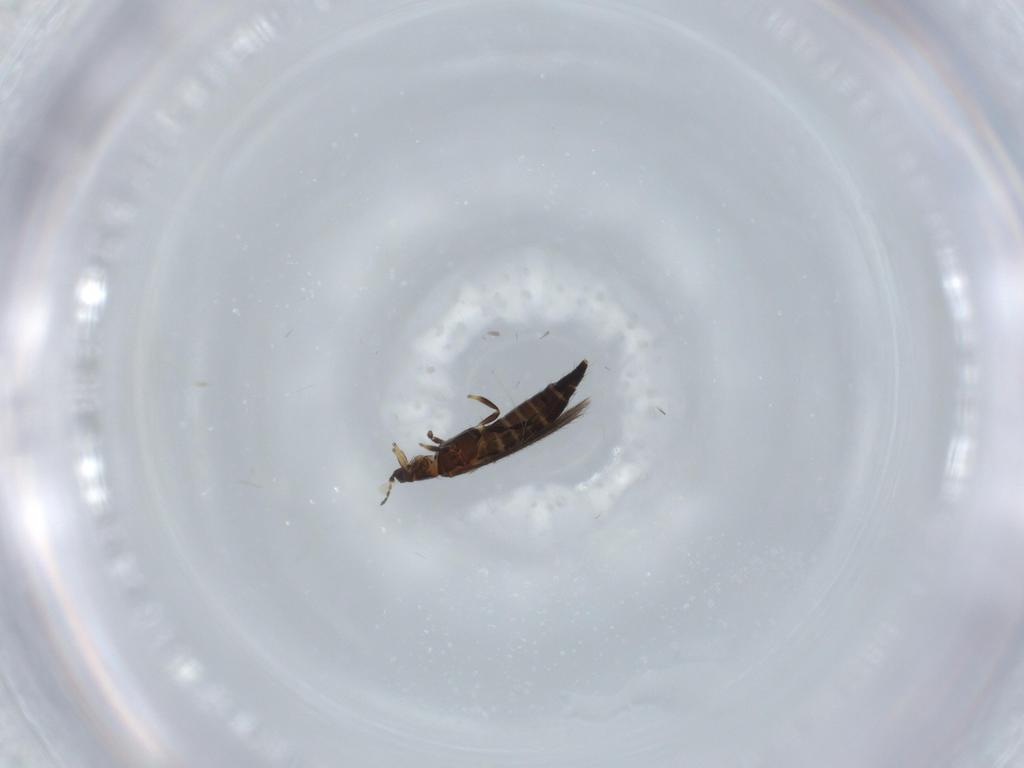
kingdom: Animalia
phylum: Arthropoda
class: Insecta
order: Thysanoptera
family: Thripidae
